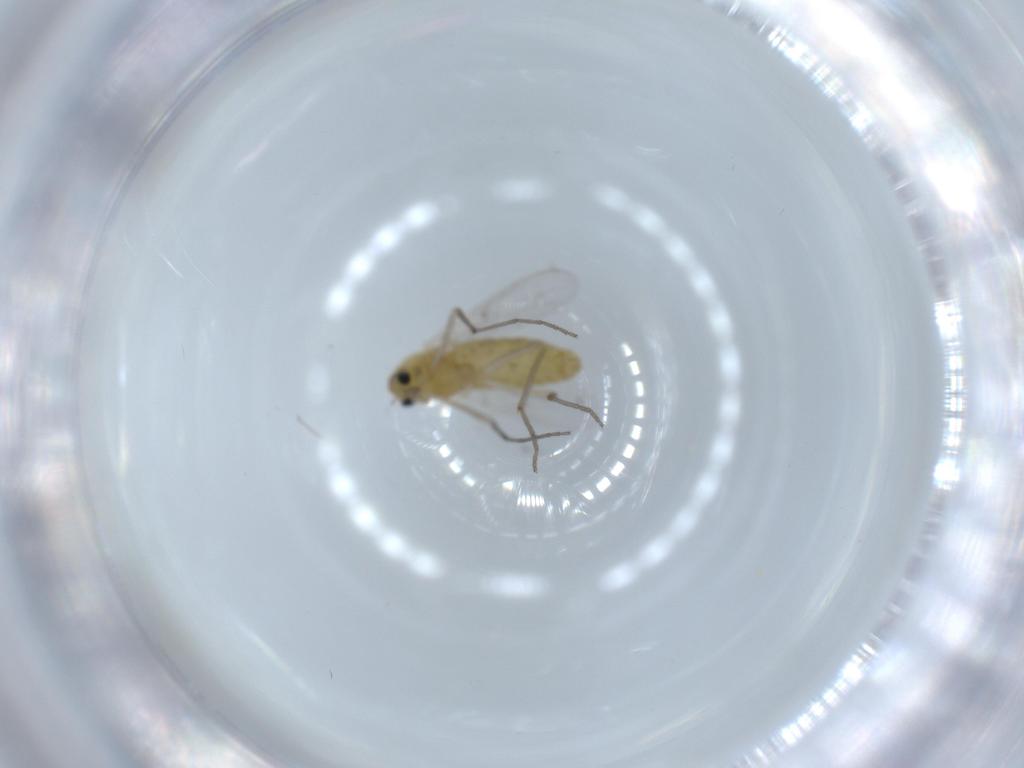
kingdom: Animalia
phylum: Arthropoda
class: Insecta
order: Diptera
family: Chironomidae
